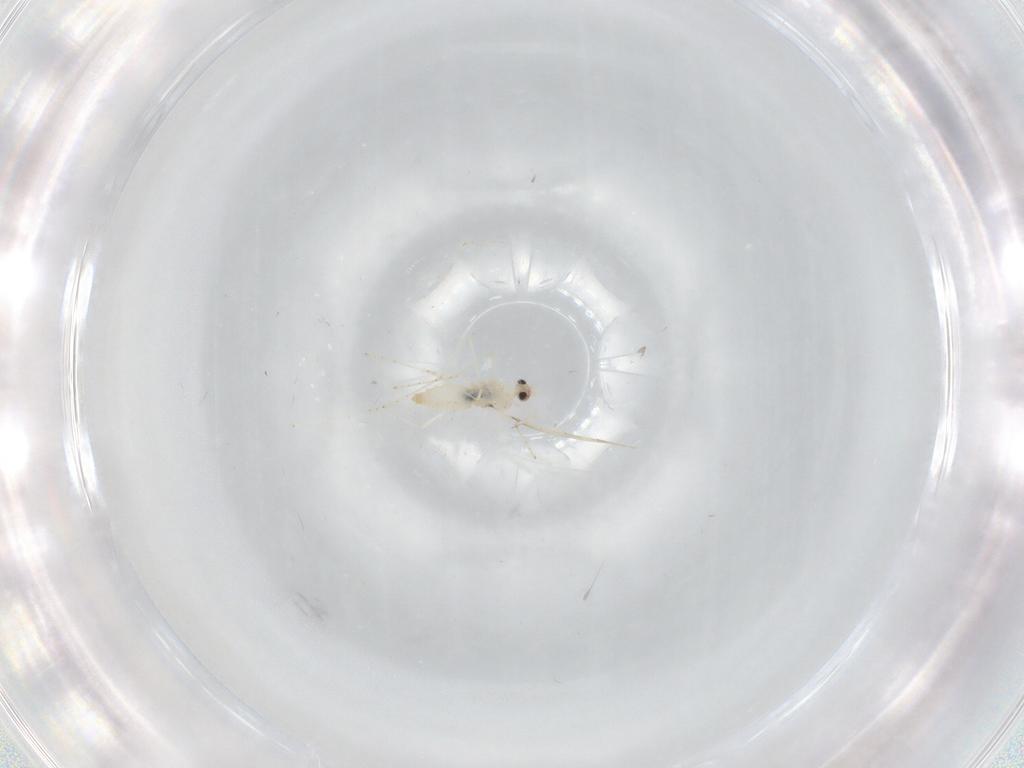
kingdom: Animalia
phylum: Arthropoda
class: Insecta
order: Diptera
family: Cecidomyiidae
